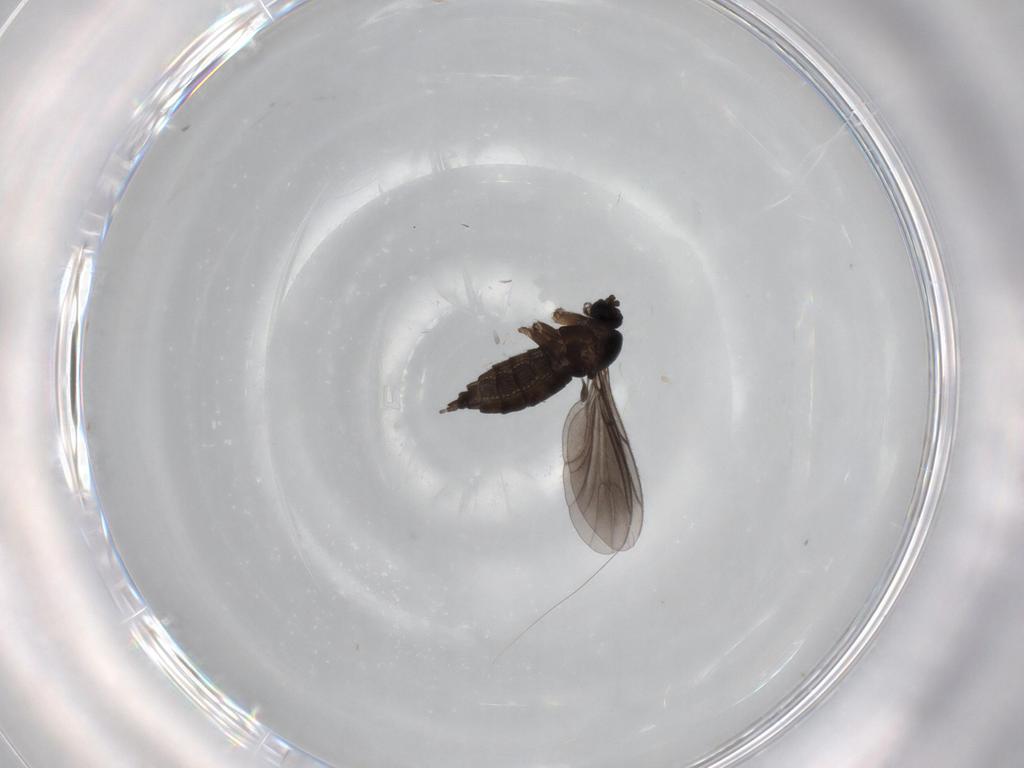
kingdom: Animalia
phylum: Arthropoda
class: Insecta
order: Diptera
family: Sciaridae
